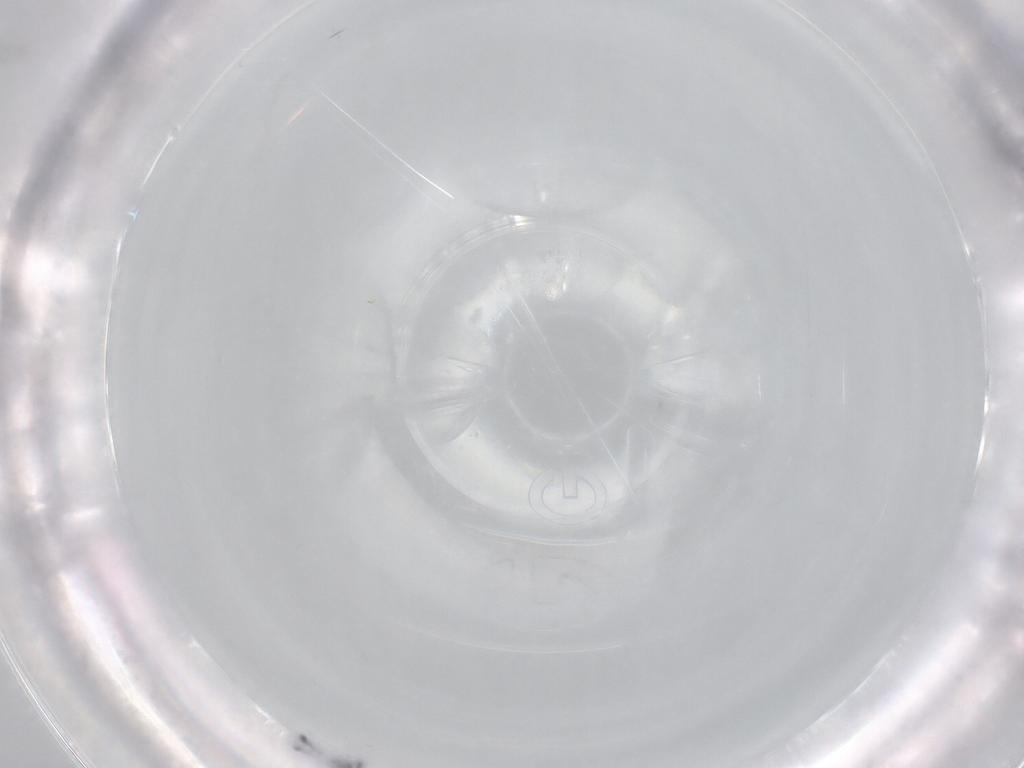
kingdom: Animalia
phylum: Arthropoda
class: Collembola
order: Entomobryomorpha
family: Entomobryidae
